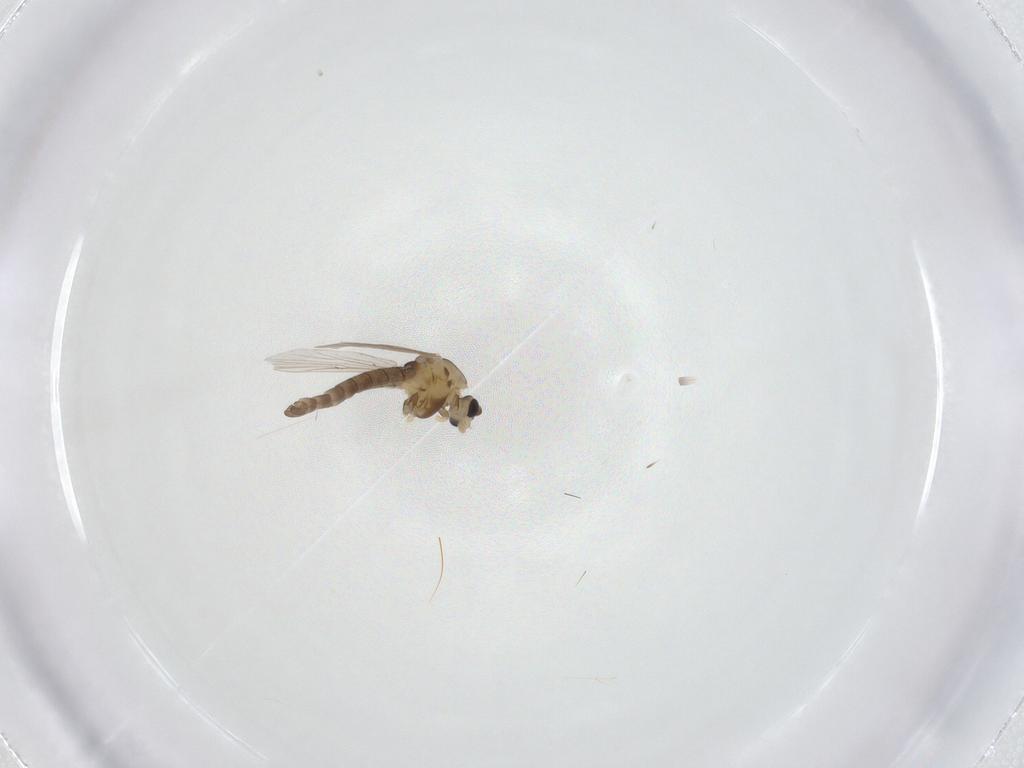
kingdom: Animalia
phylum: Arthropoda
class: Insecta
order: Diptera
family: Chironomidae
